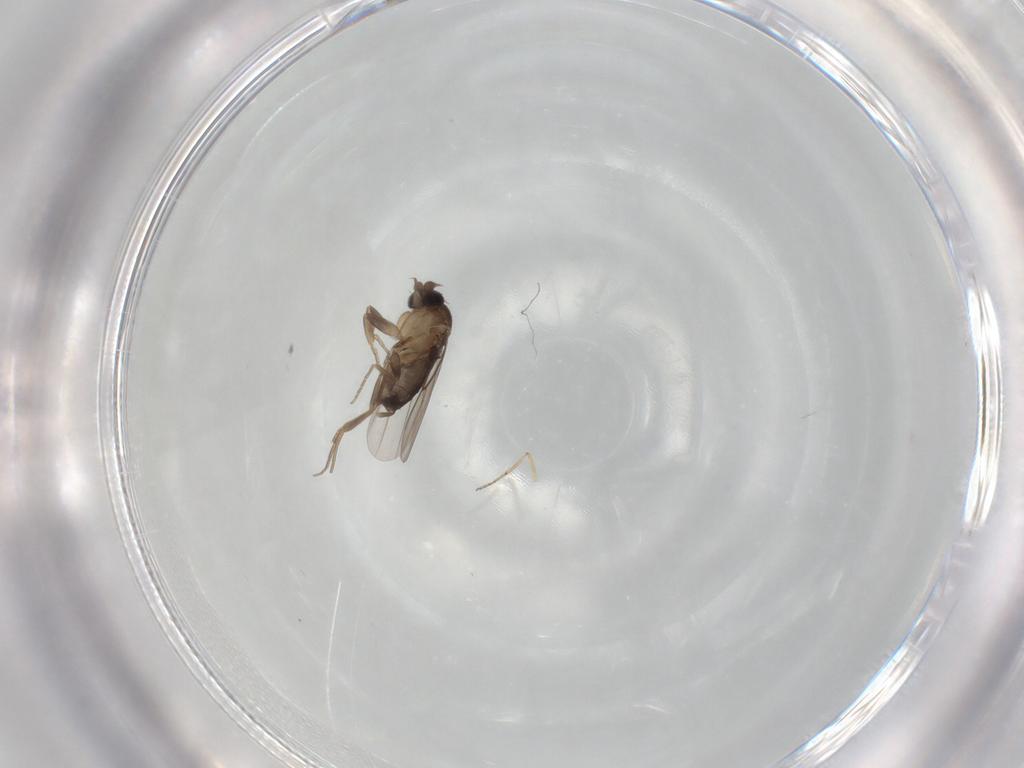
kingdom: Animalia
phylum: Arthropoda
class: Insecta
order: Diptera
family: Phoridae
